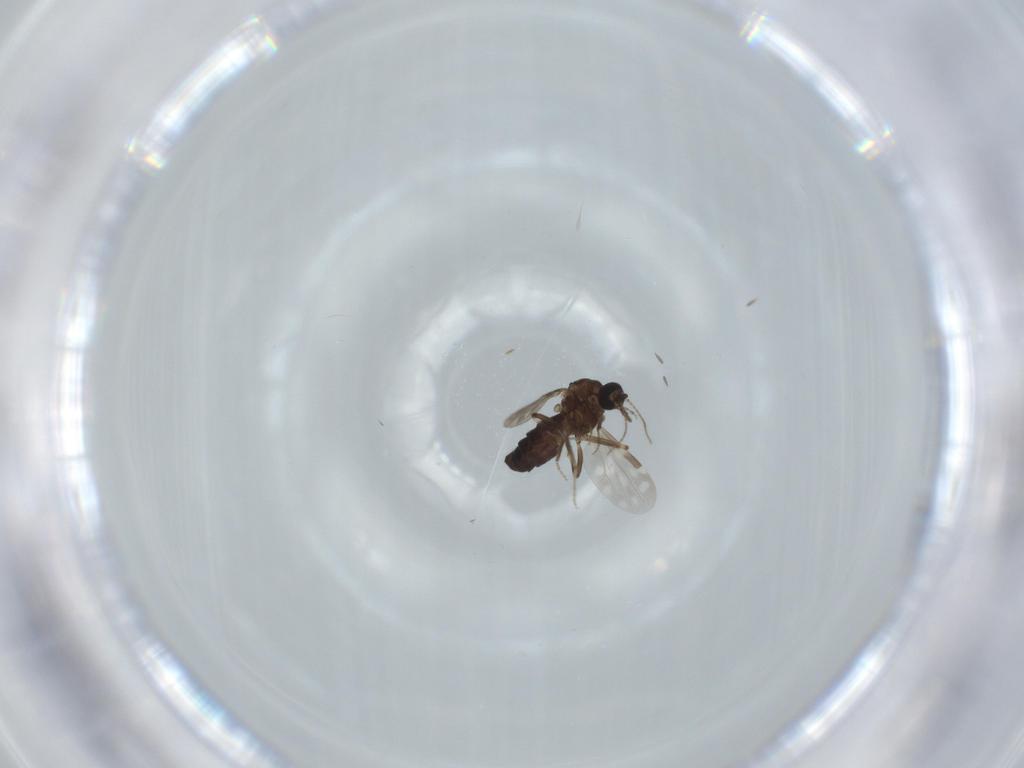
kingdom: Animalia
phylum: Arthropoda
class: Insecta
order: Diptera
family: Ceratopogonidae
